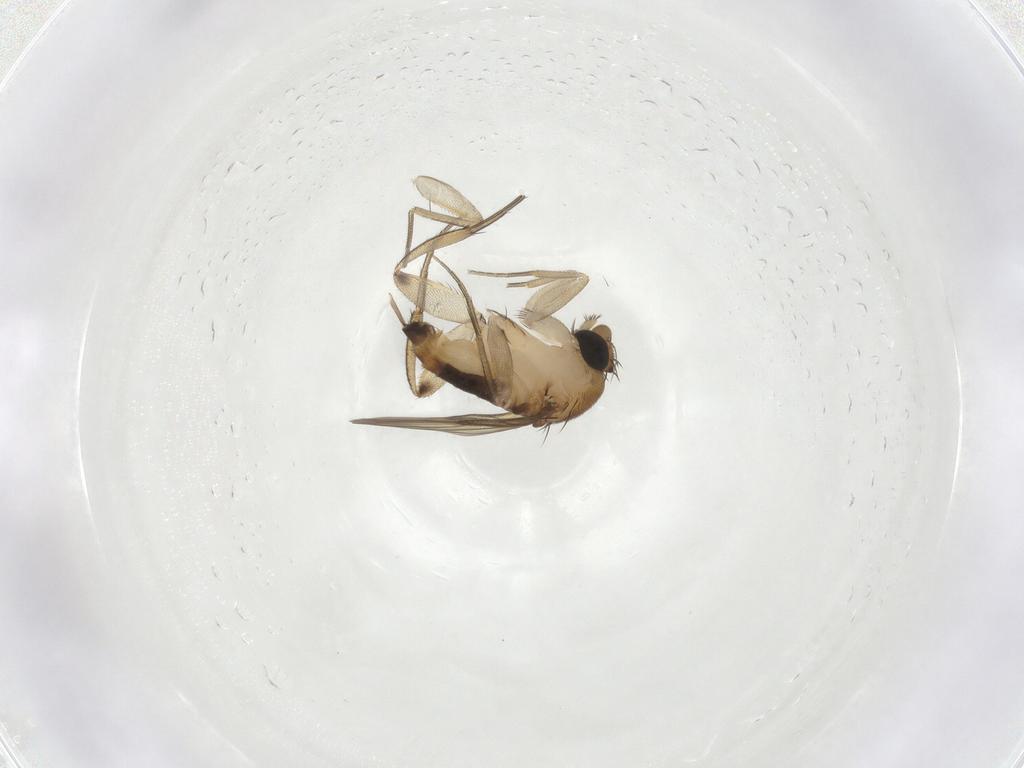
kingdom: Animalia
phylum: Arthropoda
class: Insecta
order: Diptera
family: Phoridae
